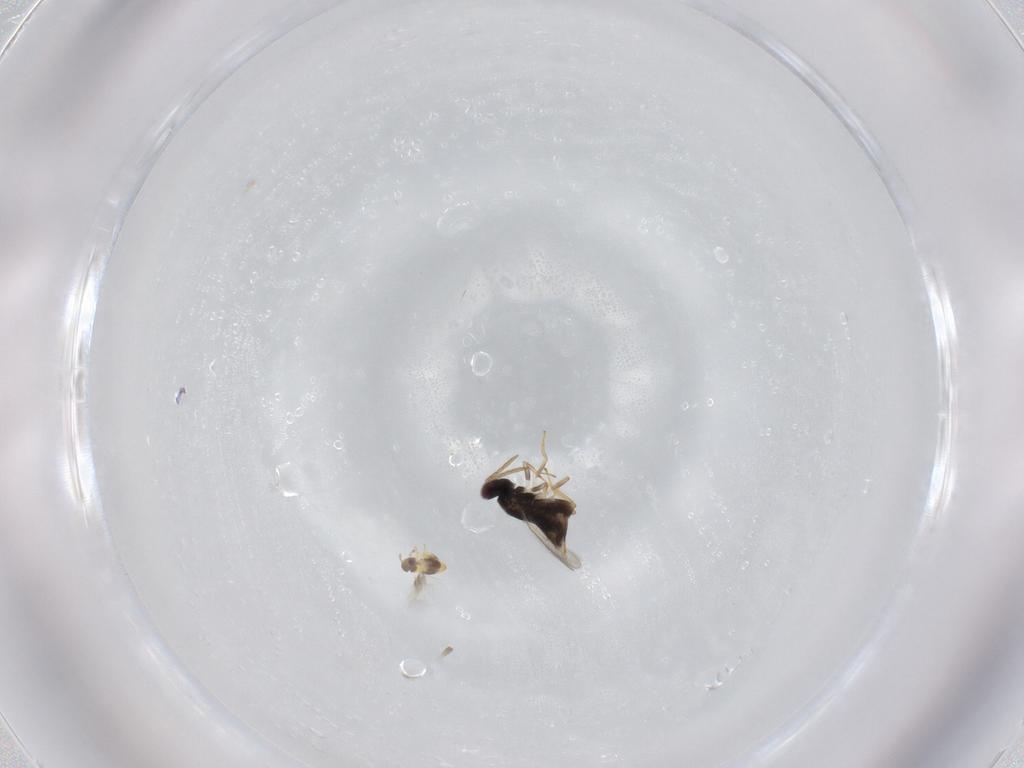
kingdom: Animalia
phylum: Arthropoda
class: Insecta
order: Hymenoptera
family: Signiphoridae
